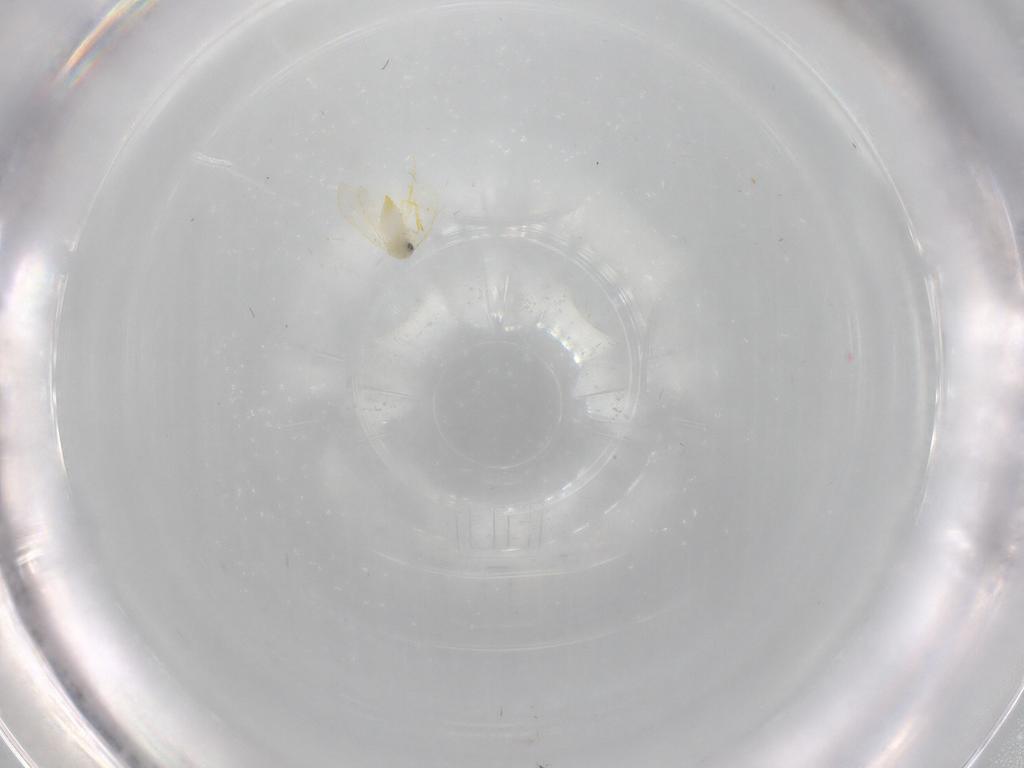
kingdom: Animalia
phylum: Arthropoda
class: Insecta
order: Hemiptera
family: Aleyrodidae
